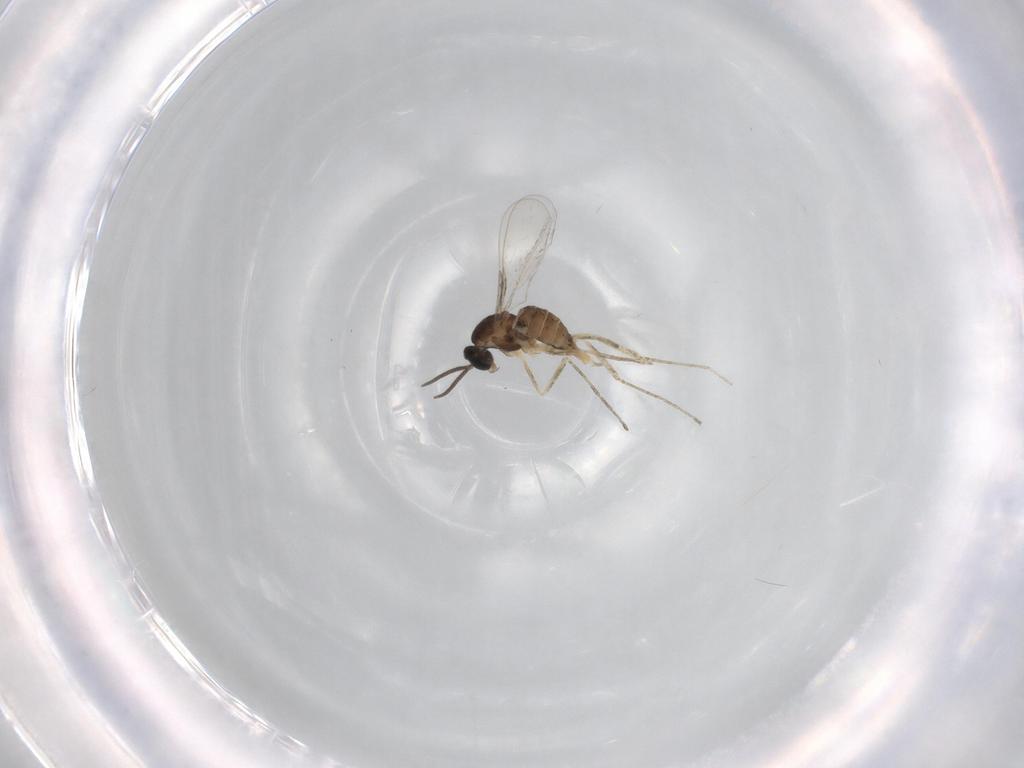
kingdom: Animalia
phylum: Arthropoda
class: Insecta
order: Diptera
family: Cecidomyiidae
